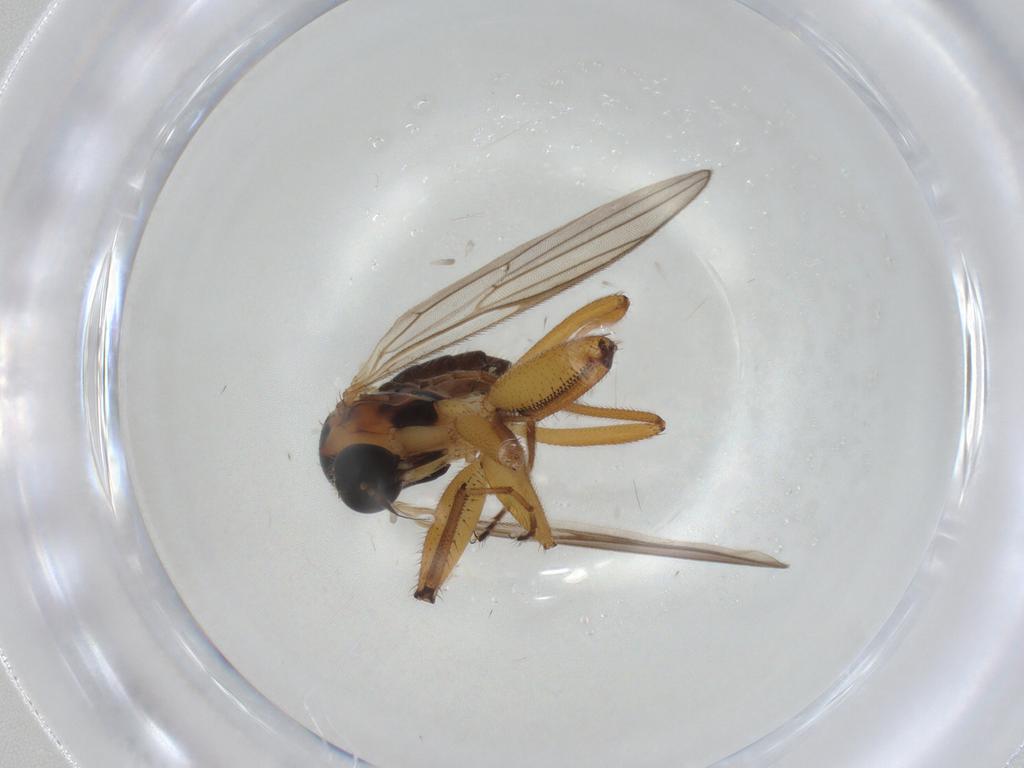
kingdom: Animalia
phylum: Arthropoda
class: Insecta
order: Diptera
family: Hybotidae
